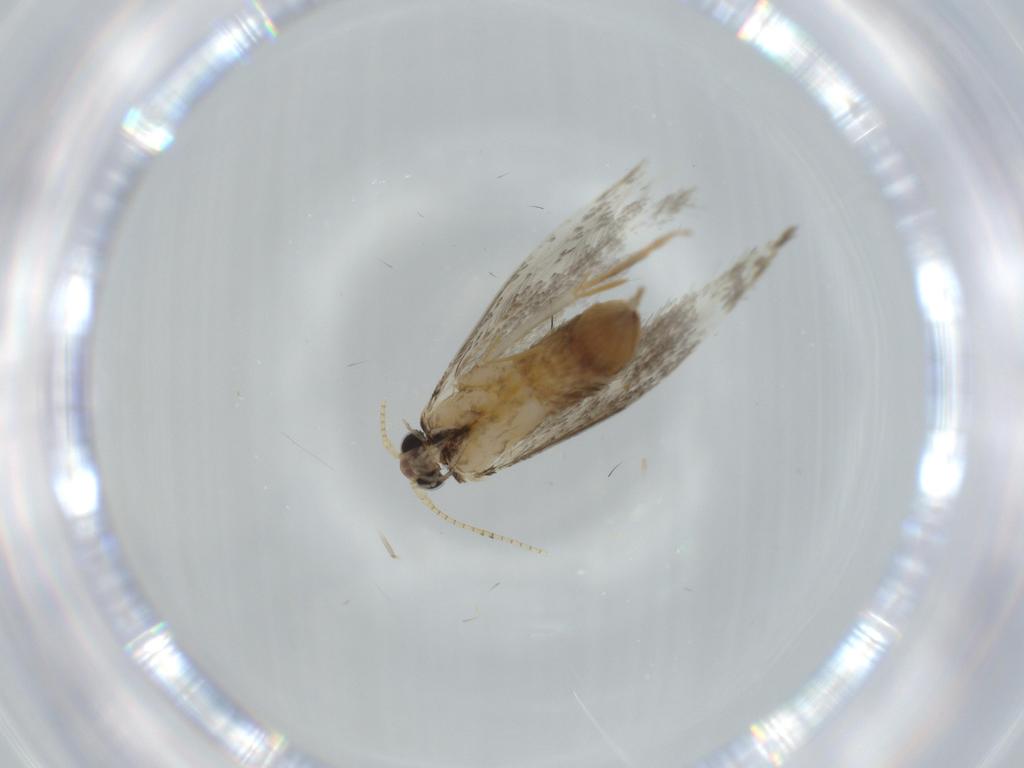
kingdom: Animalia
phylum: Arthropoda
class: Insecta
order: Lepidoptera
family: Tineidae
